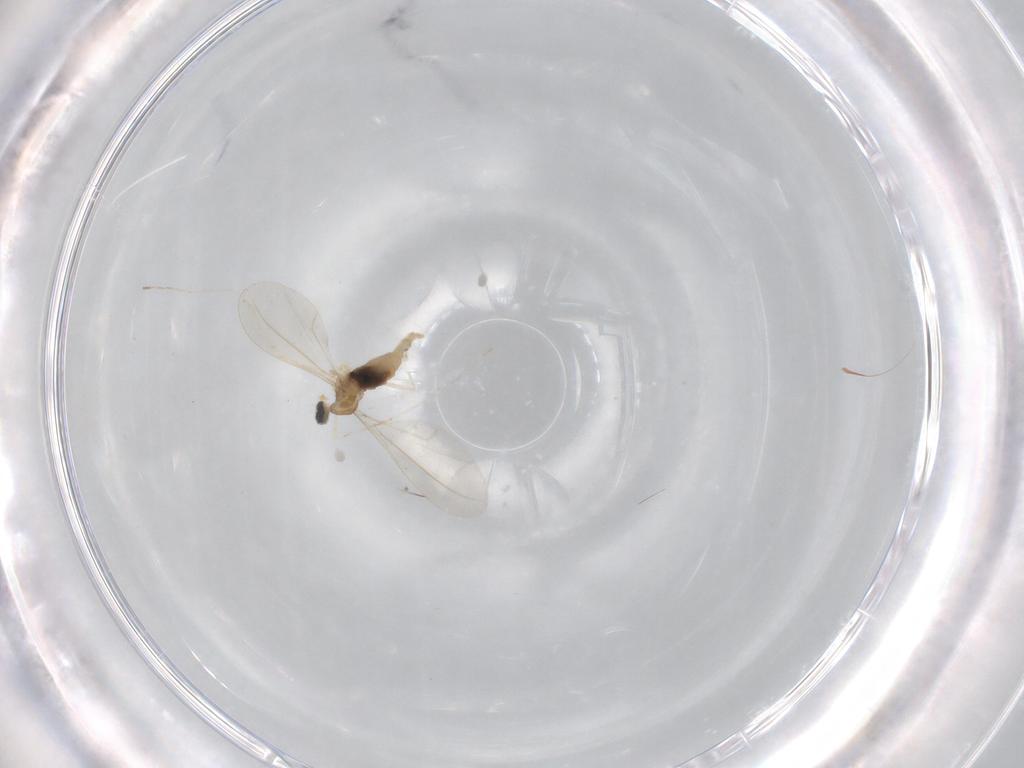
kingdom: Animalia
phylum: Arthropoda
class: Insecta
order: Diptera
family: Cecidomyiidae
